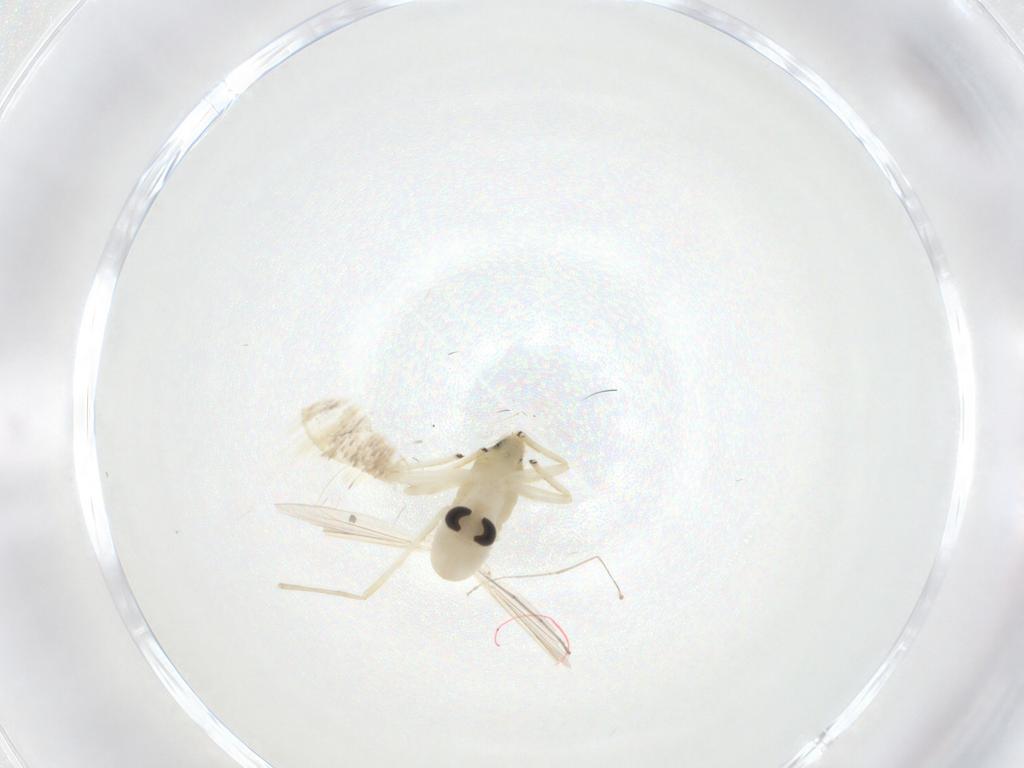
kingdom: Animalia
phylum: Arthropoda
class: Insecta
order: Diptera
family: Chironomidae
